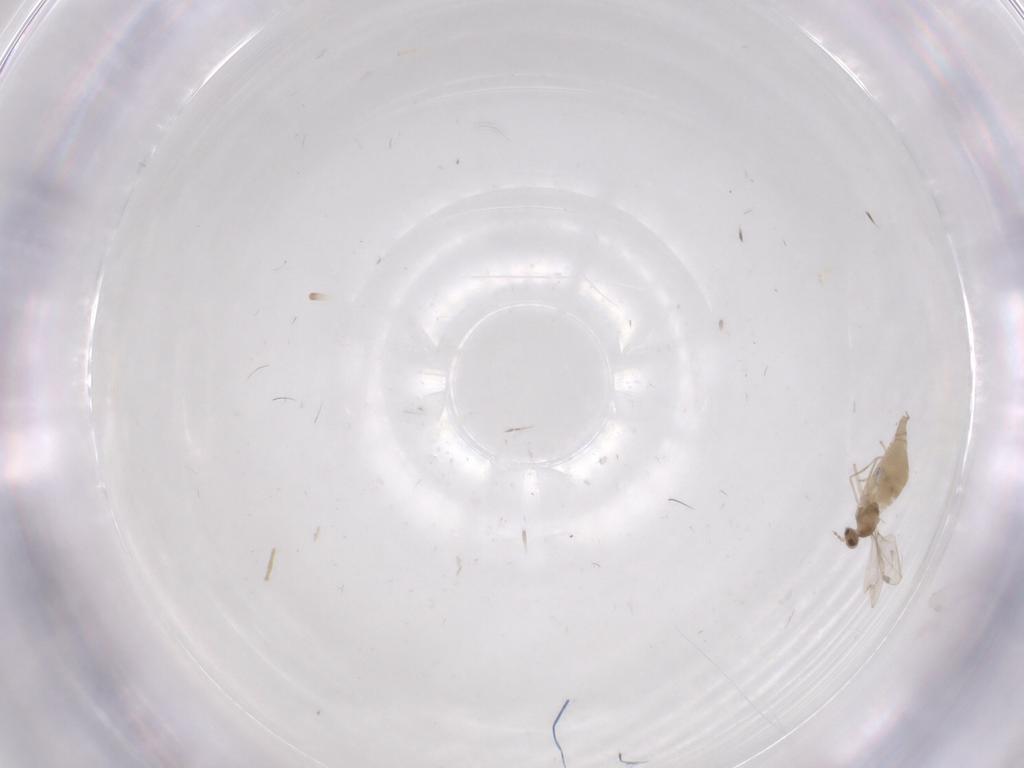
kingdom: Animalia
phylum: Arthropoda
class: Insecta
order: Diptera
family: Cecidomyiidae
